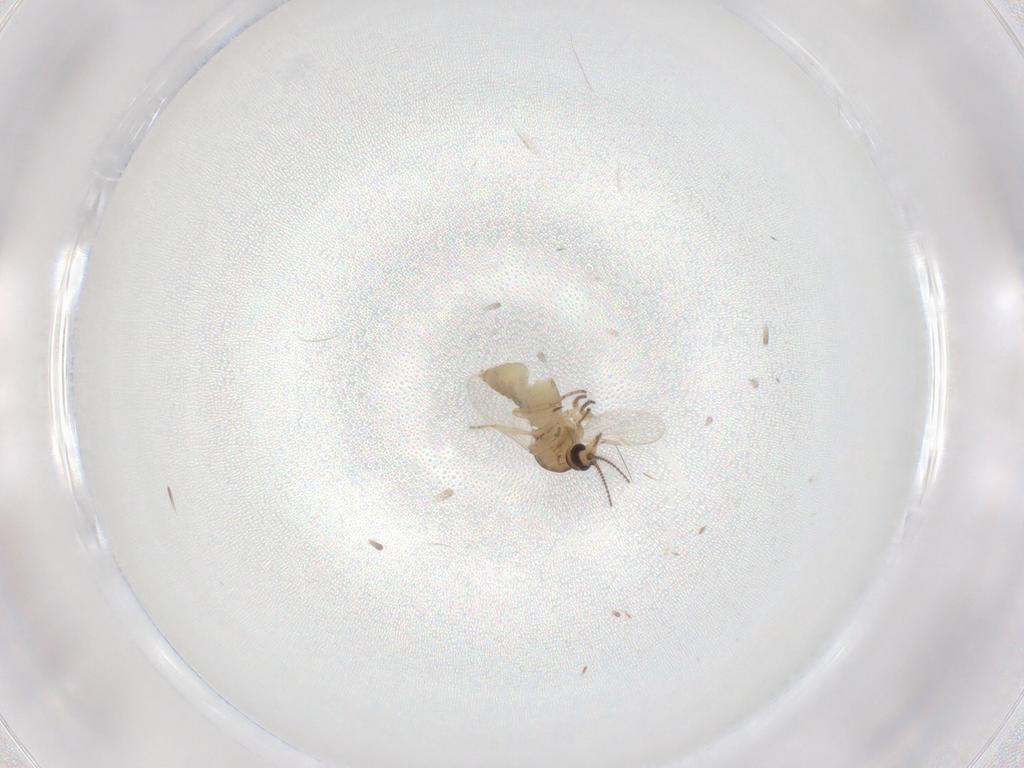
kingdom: Animalia
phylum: Arthropoda
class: Insecta
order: Diptera
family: Ceratopogonidae
